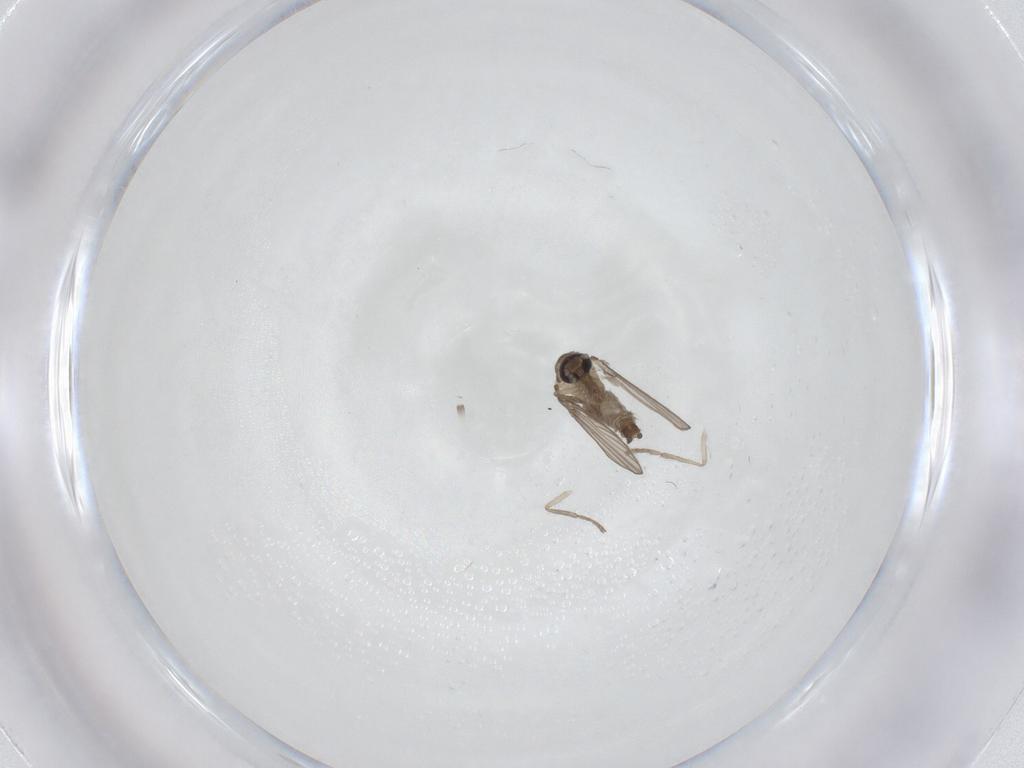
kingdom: Animalia
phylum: Arthropoda
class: Insecta
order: Diptera
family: Psychodidae
